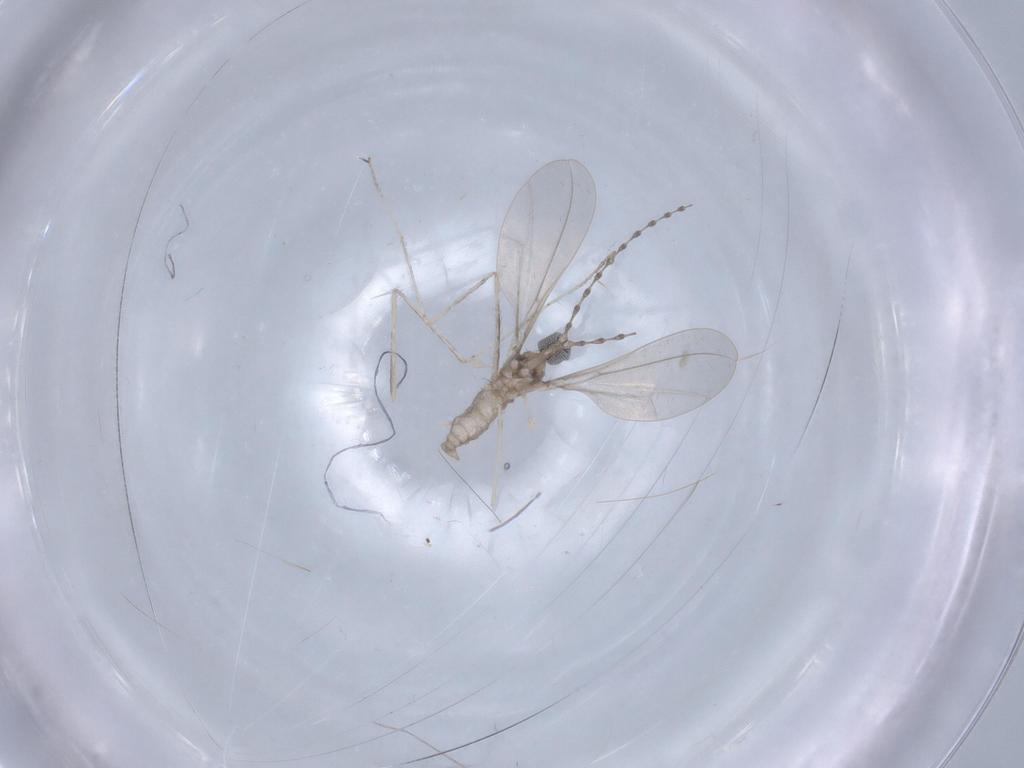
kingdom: Animalia
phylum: Arthropoda
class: Insecta
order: Diptera
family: Cecidomyiidae
